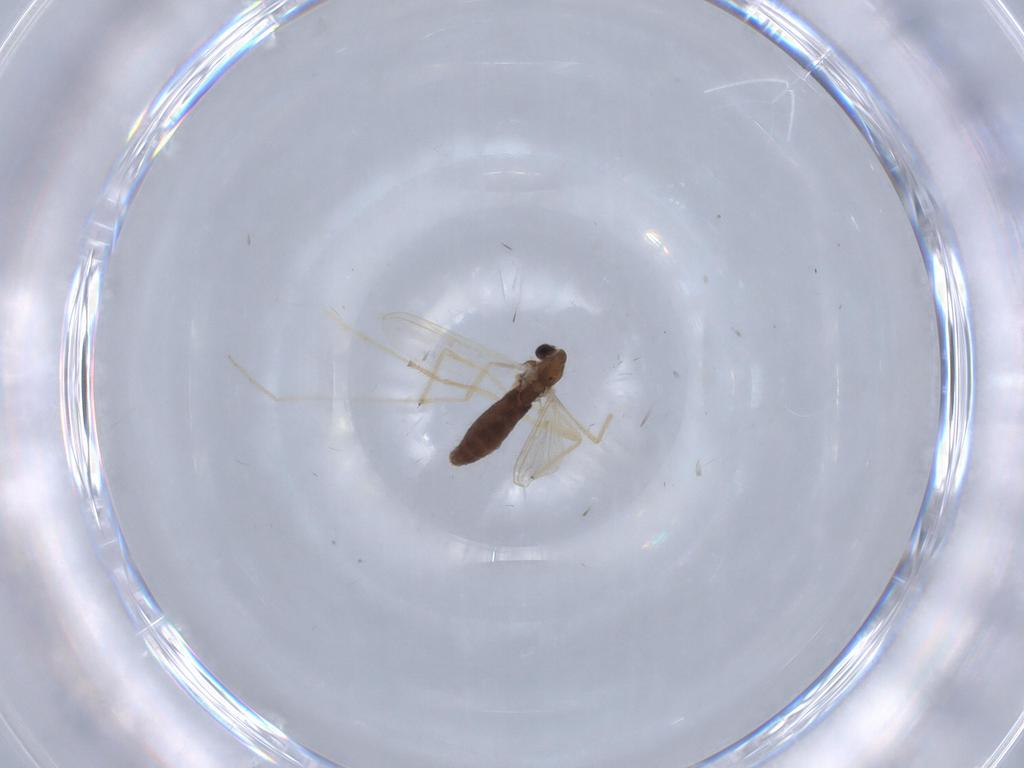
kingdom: Animalia
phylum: Arthropoda
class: Insecta
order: Diptera
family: Chironomidae
